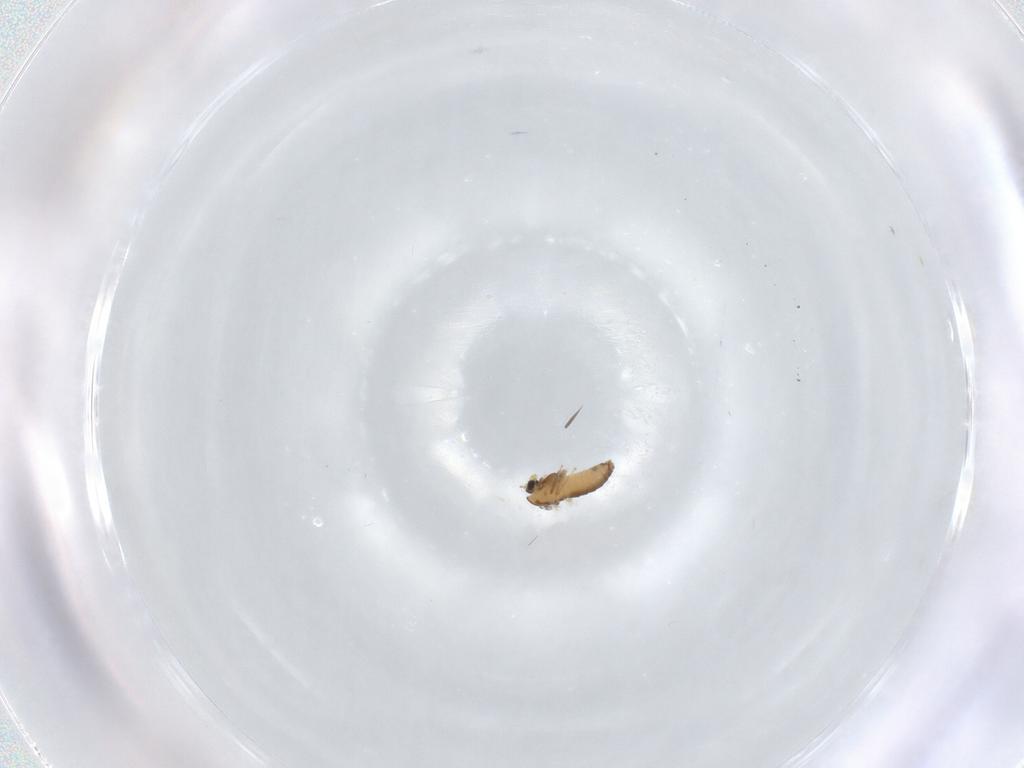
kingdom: Animalia
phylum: Arthropoda
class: Insecta
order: Diptera
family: Chironomidae
